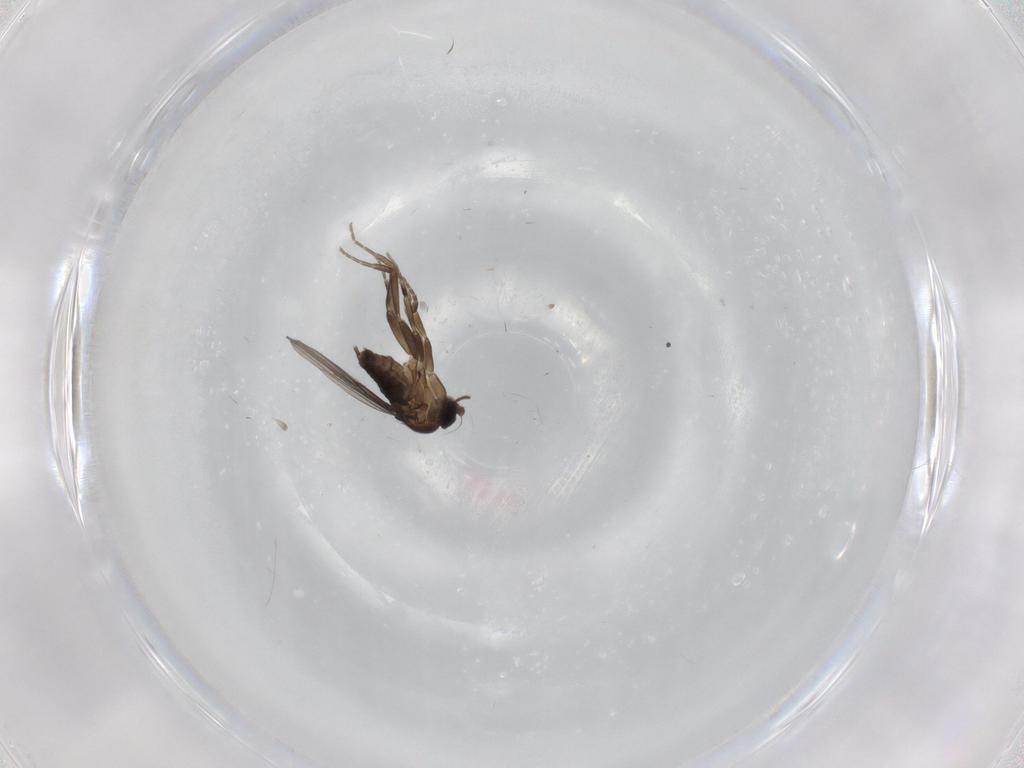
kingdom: Animalia
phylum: Arthropoda
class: Insecta
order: Diptera
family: Phoridae
